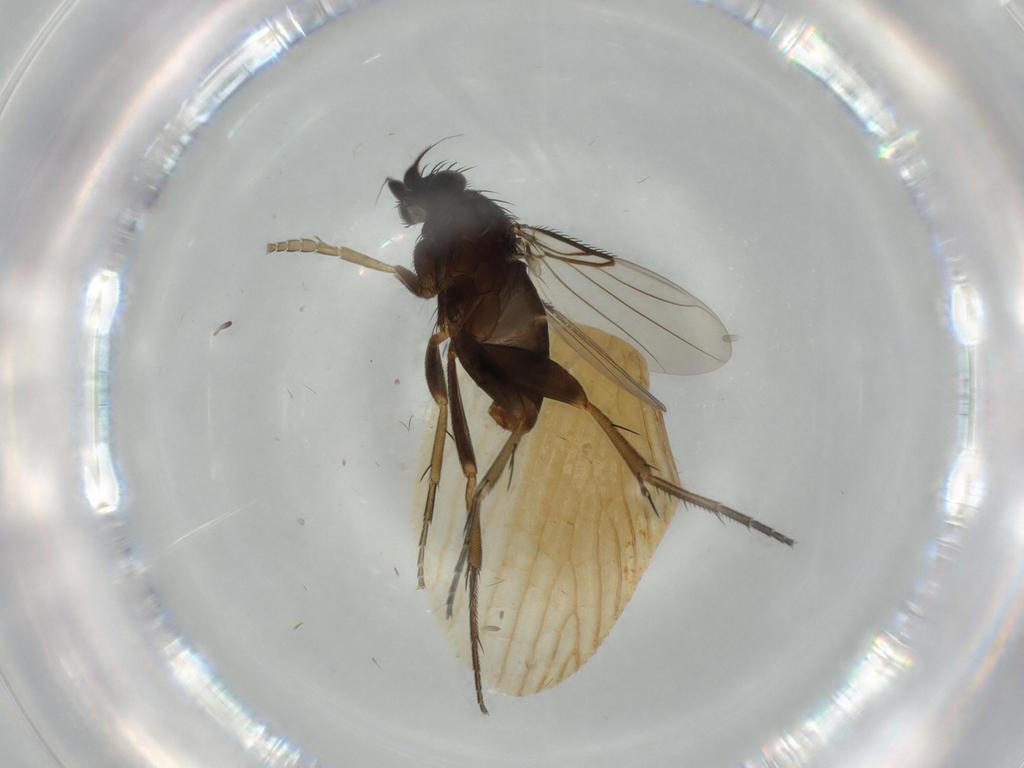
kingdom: Animalia
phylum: Arthropoda
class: Insecta
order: Diptera
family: Phoridae
